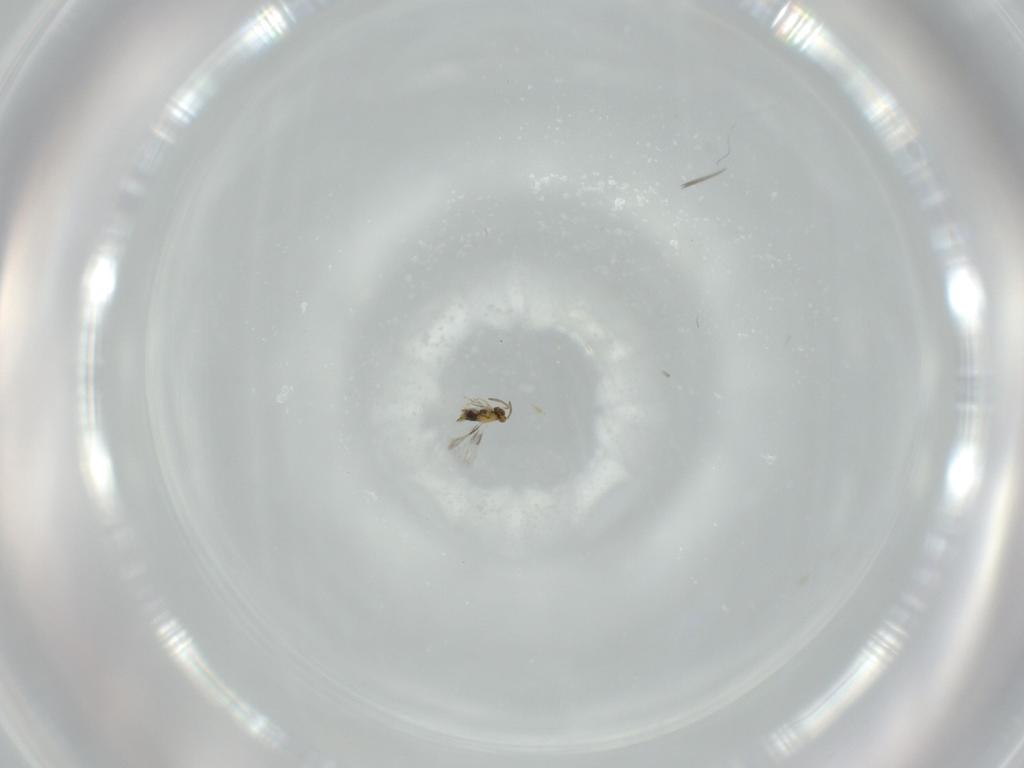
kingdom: Animalia
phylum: Arthropoda
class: Insecta
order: Hymenoptera
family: Aphelinidae
